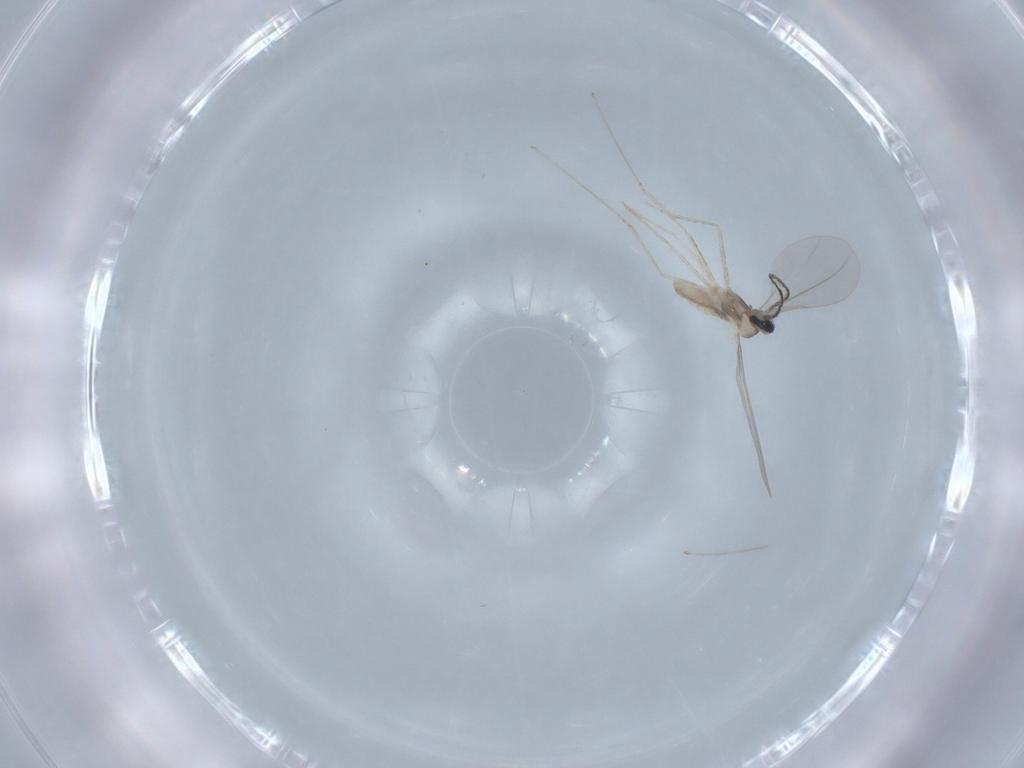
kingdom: Animalia
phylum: Arthropoda
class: Insecta
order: Diptera
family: Cecidomyiidae
